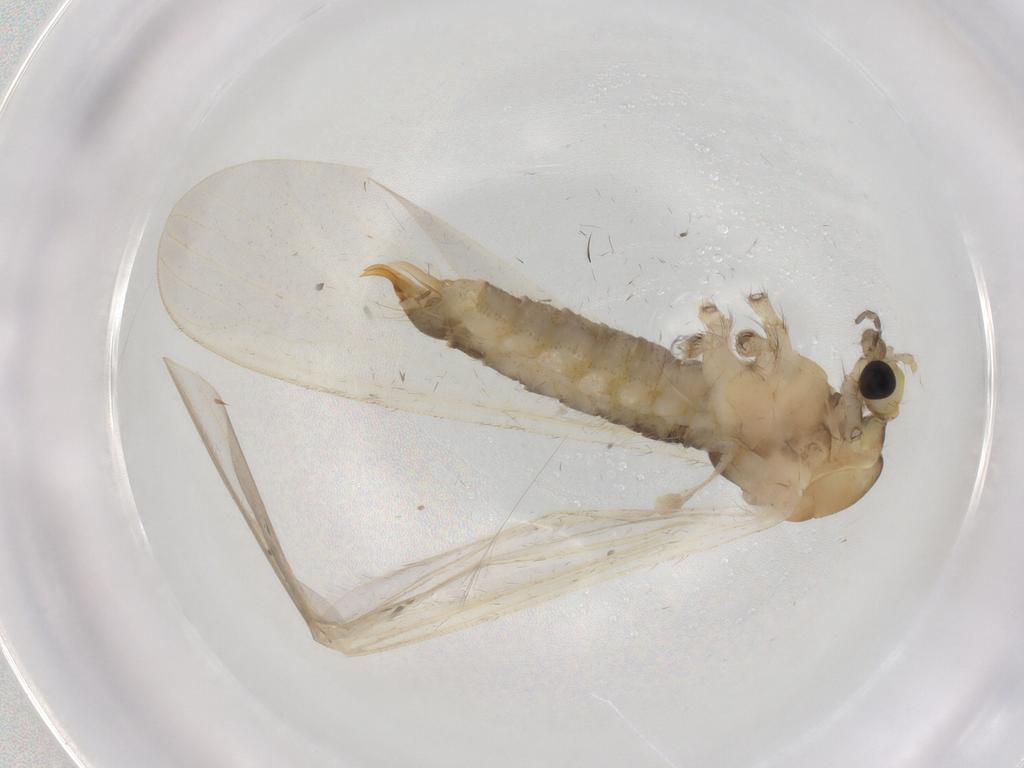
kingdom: Animalia
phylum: Arthropoda
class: Insecta
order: Diptera
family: Limoniidae
